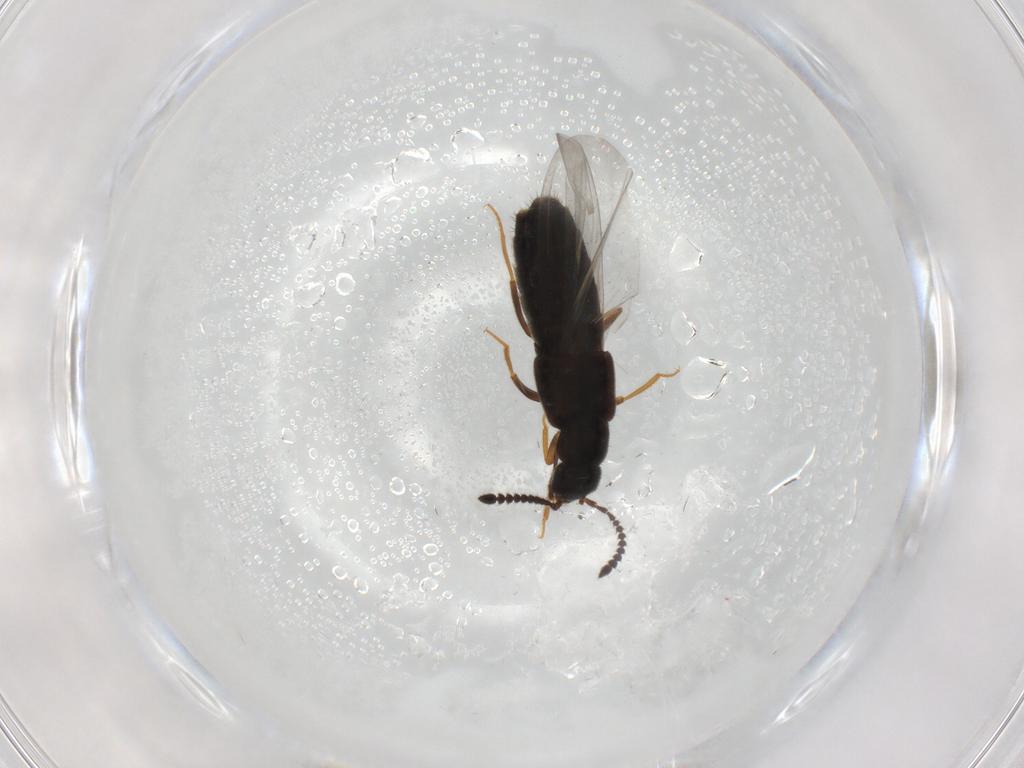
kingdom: Animalia
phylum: Arthropoda
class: Insecta
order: Coleoptera
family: Staphylinidae
